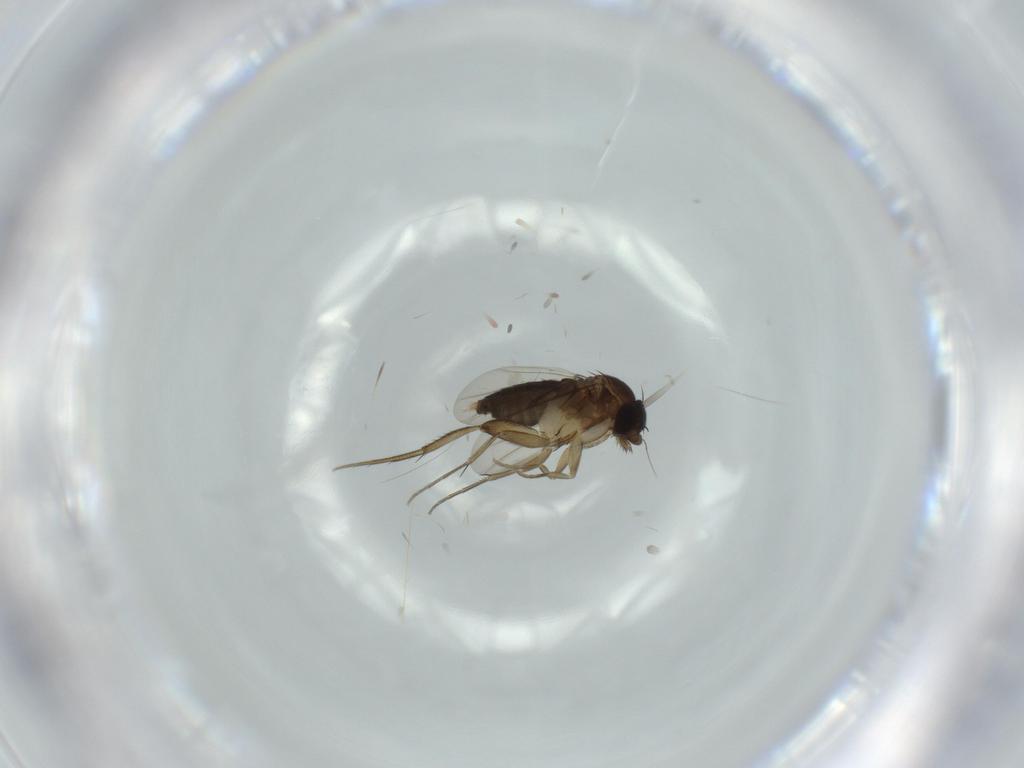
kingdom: Animalia
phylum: Arthropoda
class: Insecta
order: Diptera
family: Phoridae
